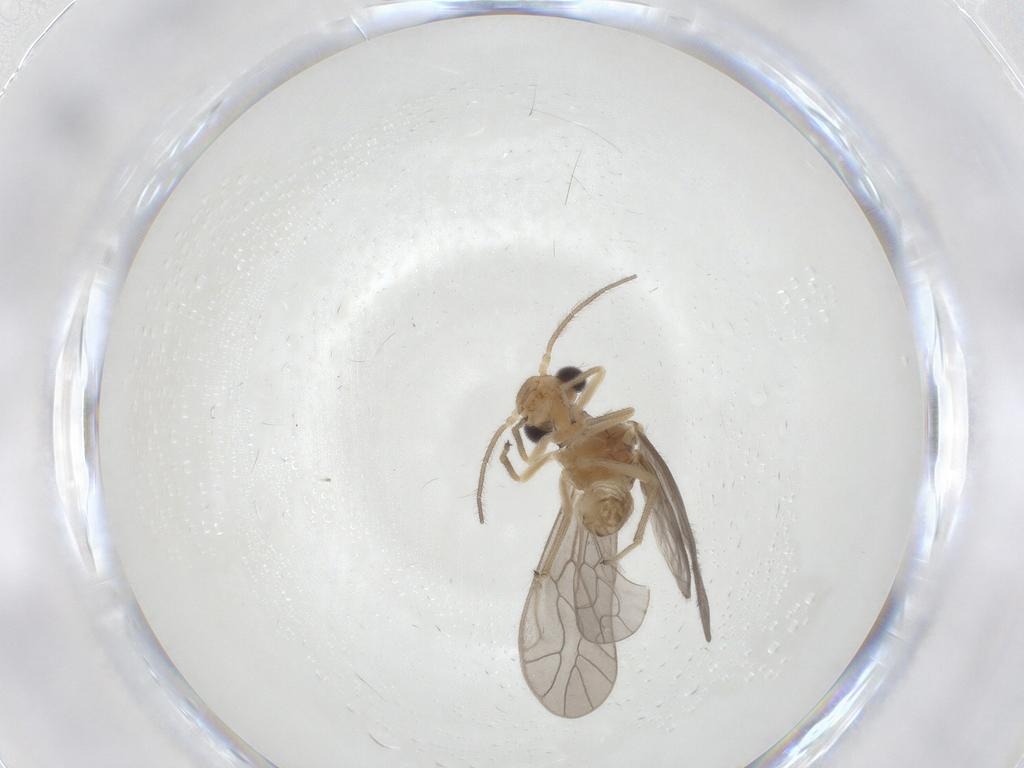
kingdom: Animalia
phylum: Arthropoda
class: Insecta
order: Psocodea
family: Caeciliusidae
